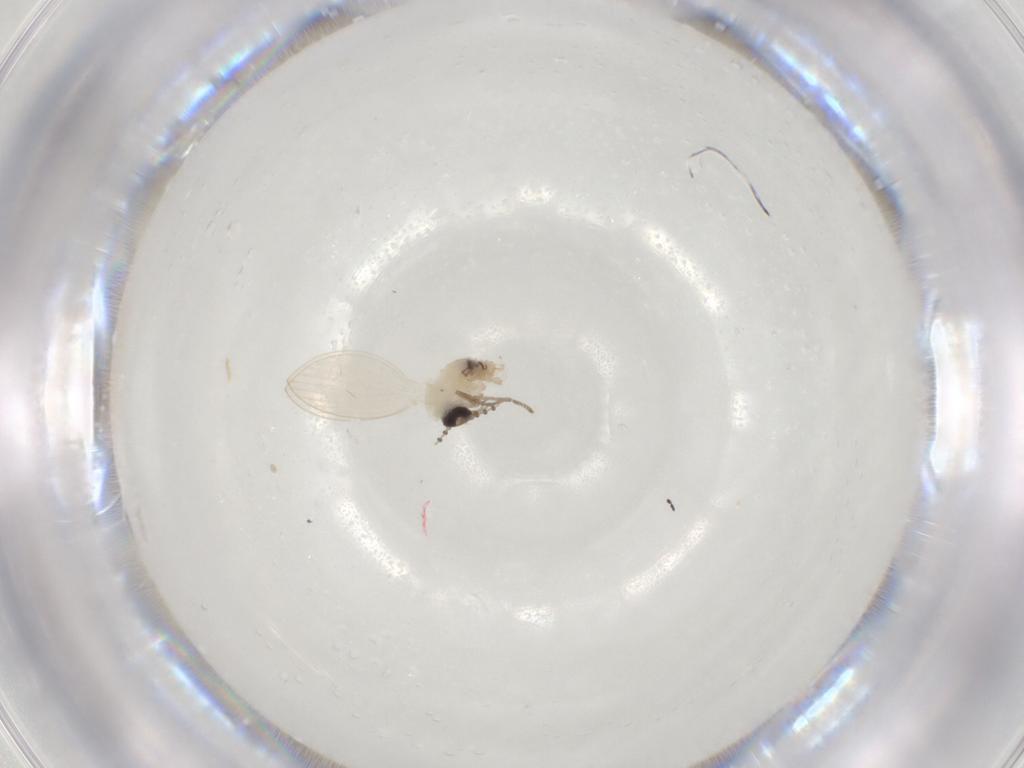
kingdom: Animalia
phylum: Arthropoda
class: Insecta
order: Diptera
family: Psychodidae
